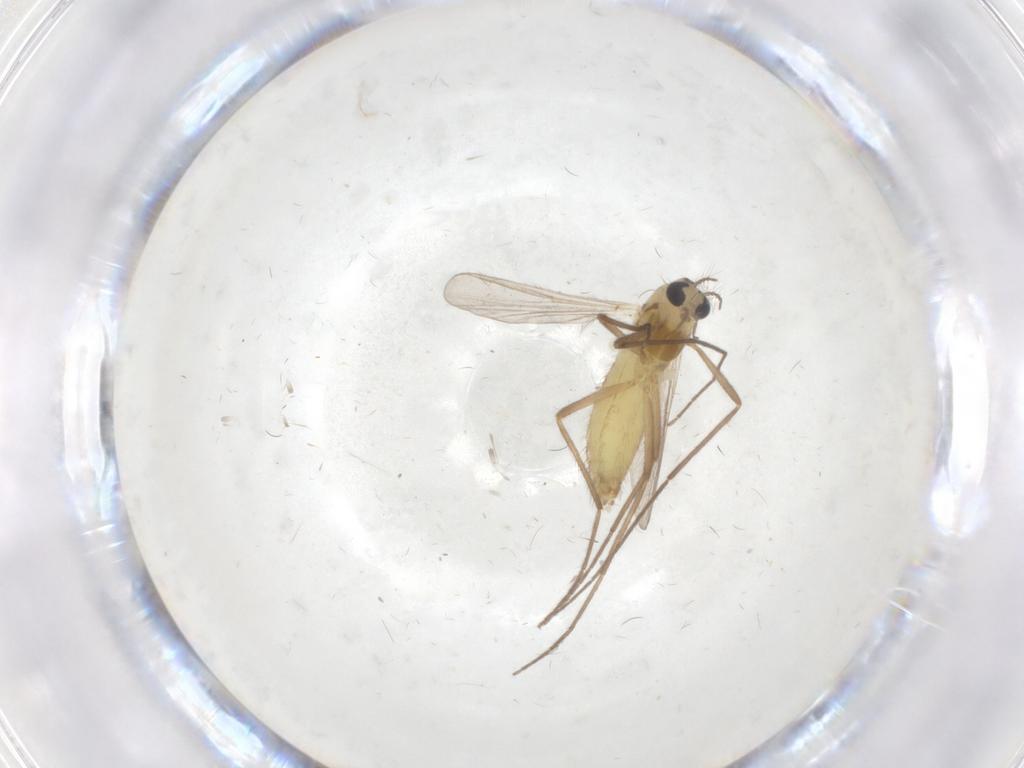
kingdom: Animalia
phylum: Arthropoda
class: Insecta
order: Diptera
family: Chironomidae
